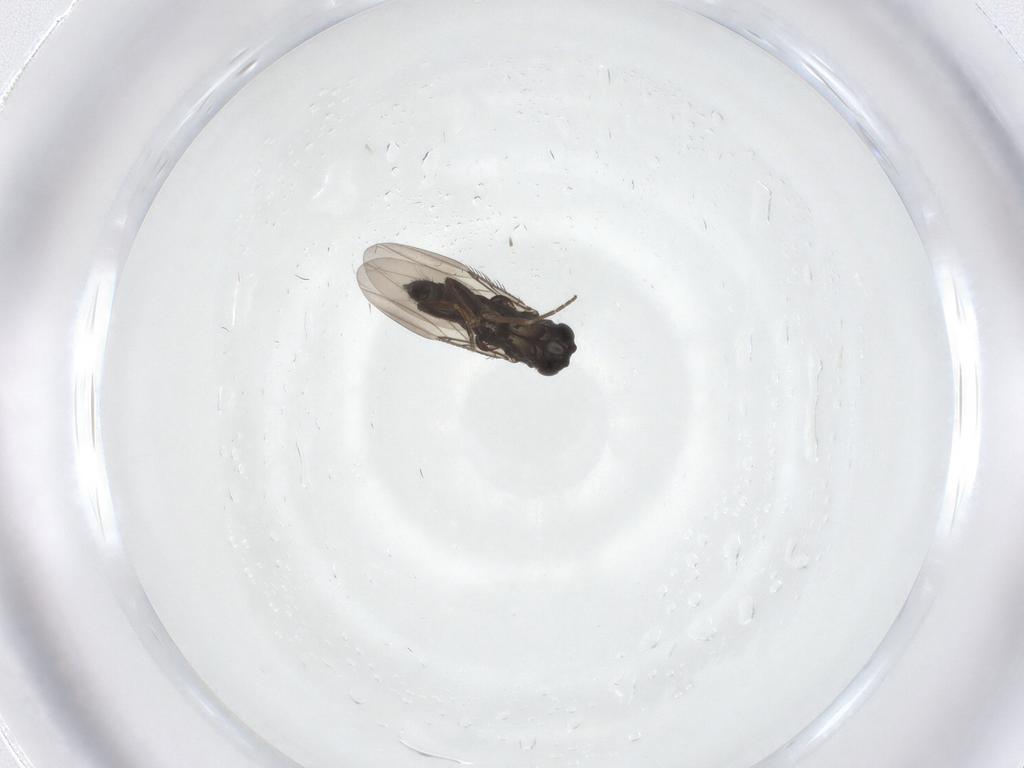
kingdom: Animalia
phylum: Arthropoda
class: Insecta
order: Diptera
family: Phoridae
